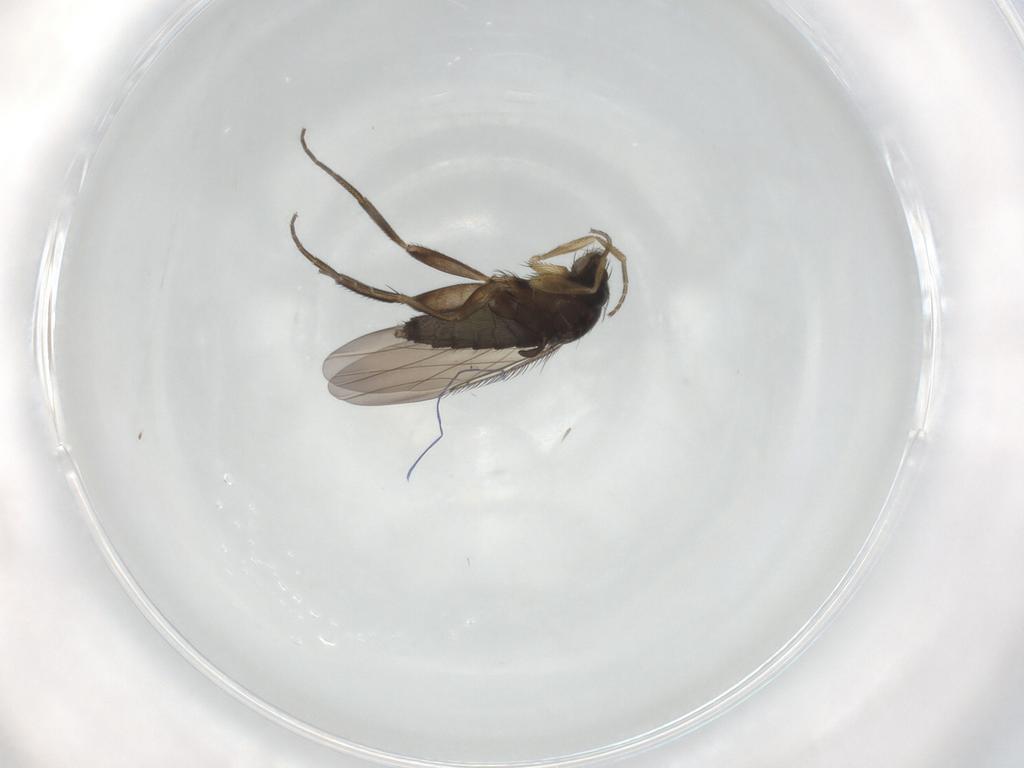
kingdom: Animalia
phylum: Arthropoda
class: Insecta
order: Diptera
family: Phoridae
